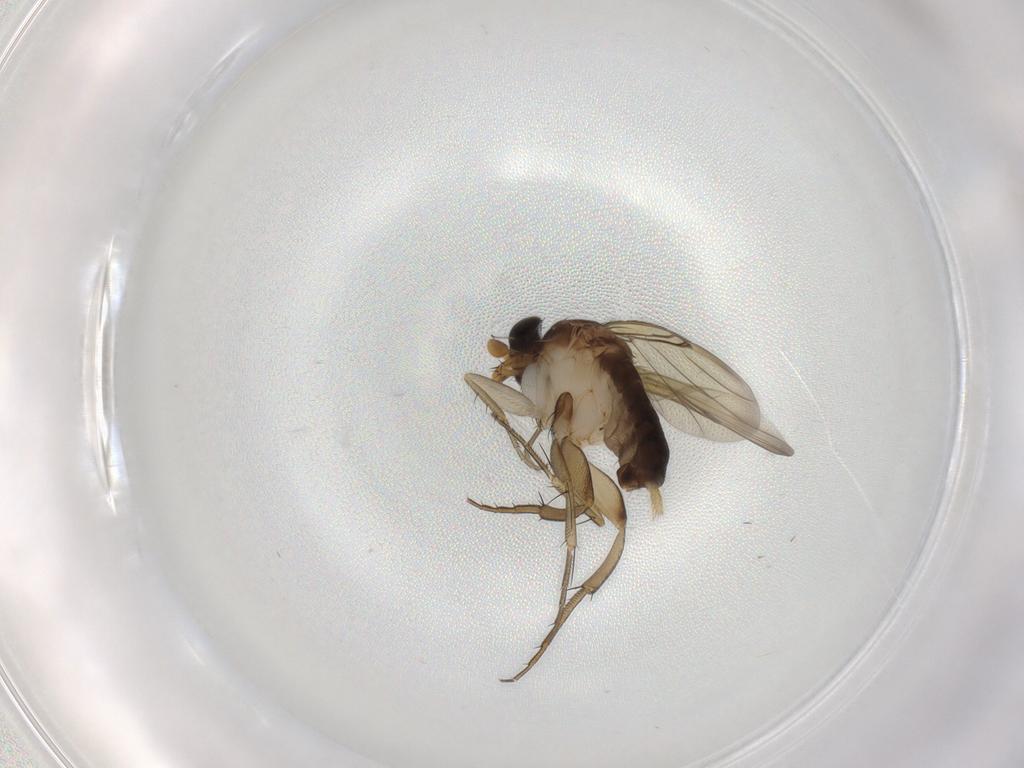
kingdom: Animalia
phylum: Arthropoda
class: Insecta
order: Diptera
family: Phoridae
